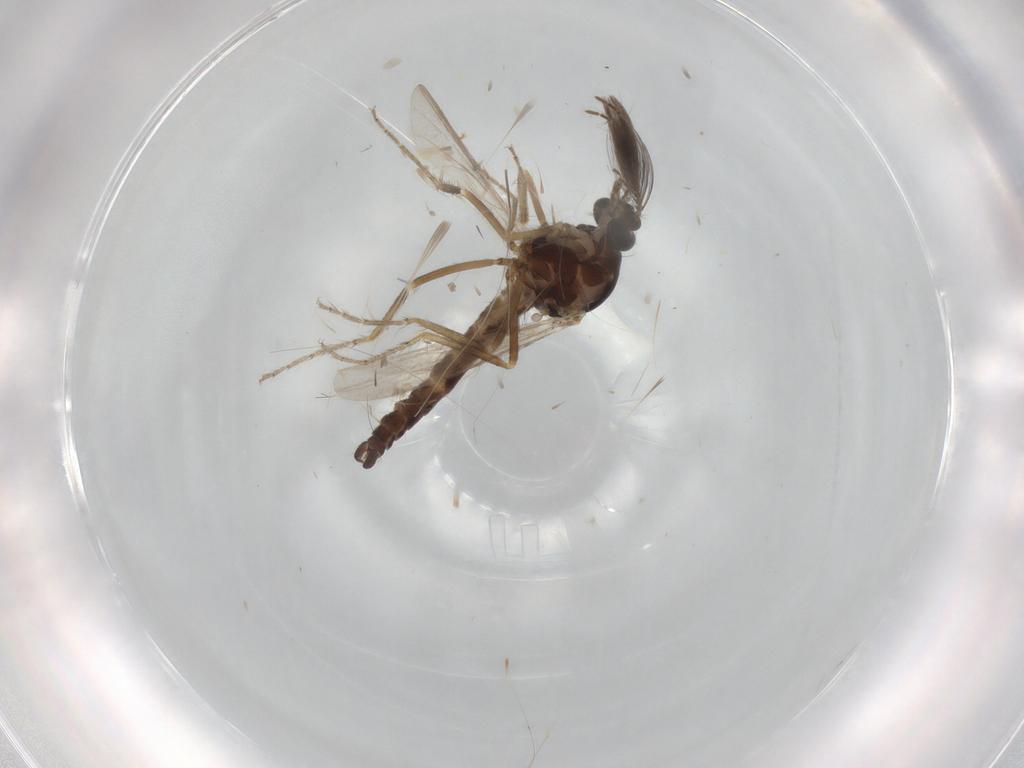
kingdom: Animalia
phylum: Arthropoda
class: Insecta
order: Diptera
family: Ceratopogonidae
